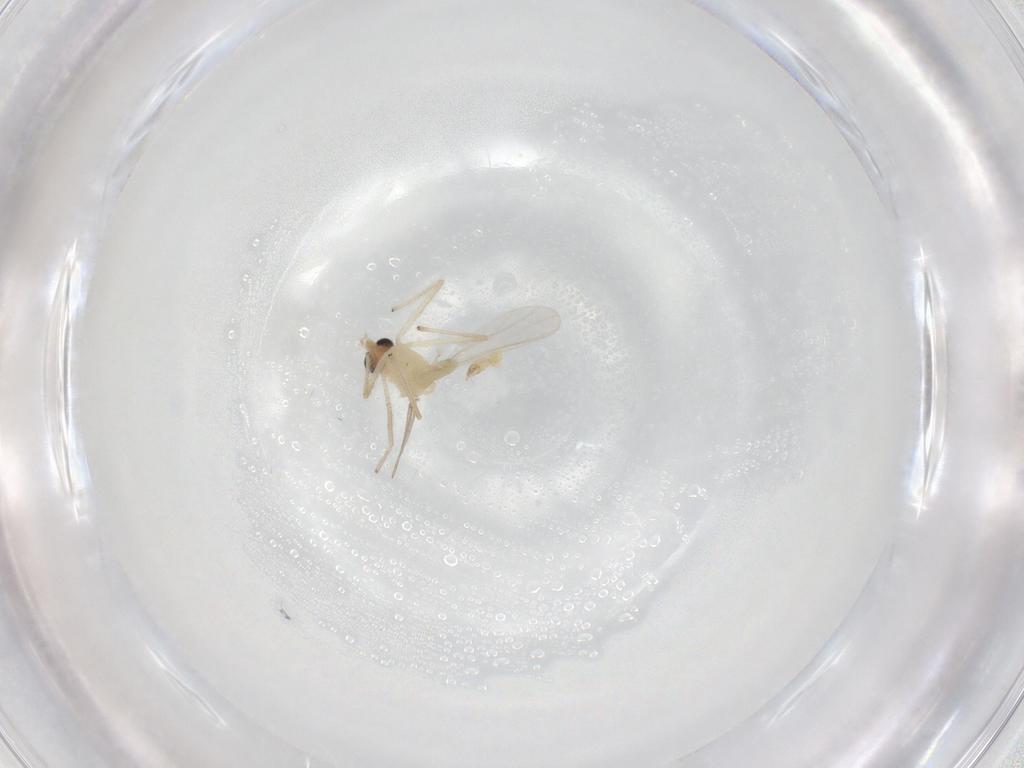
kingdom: Animalia
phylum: Arthropoda
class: Insecta
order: Diptera
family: Chironomidae
